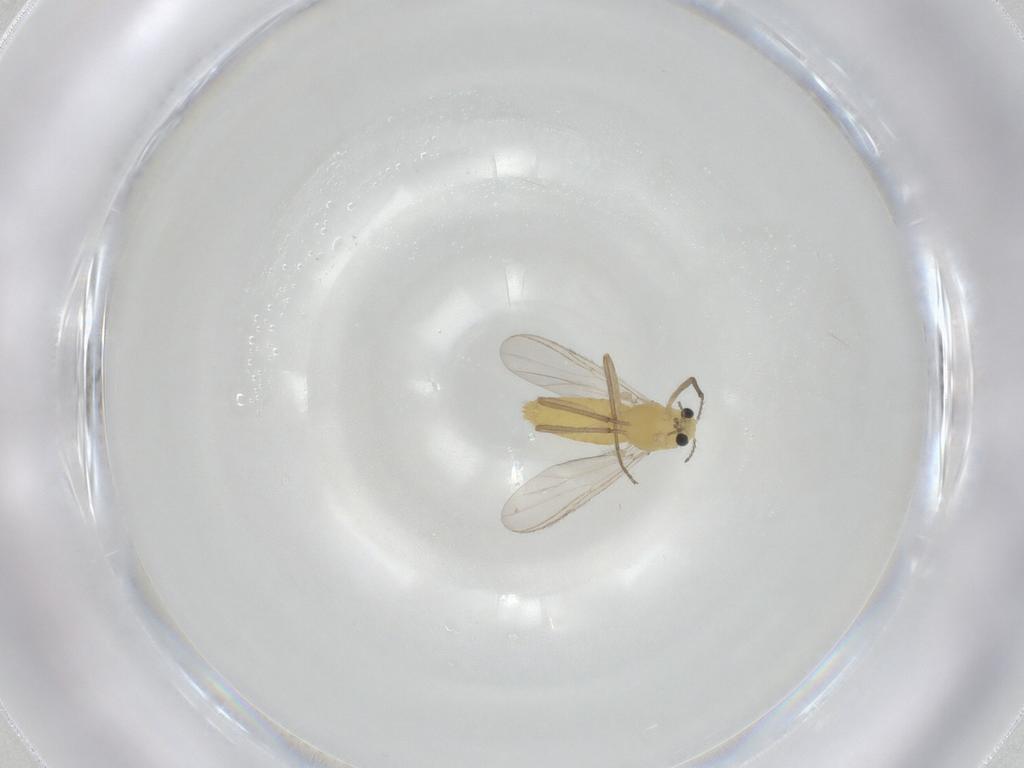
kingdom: Animalia
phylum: Arthropoda
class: Insecta
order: Diptera
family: Chironomidae
